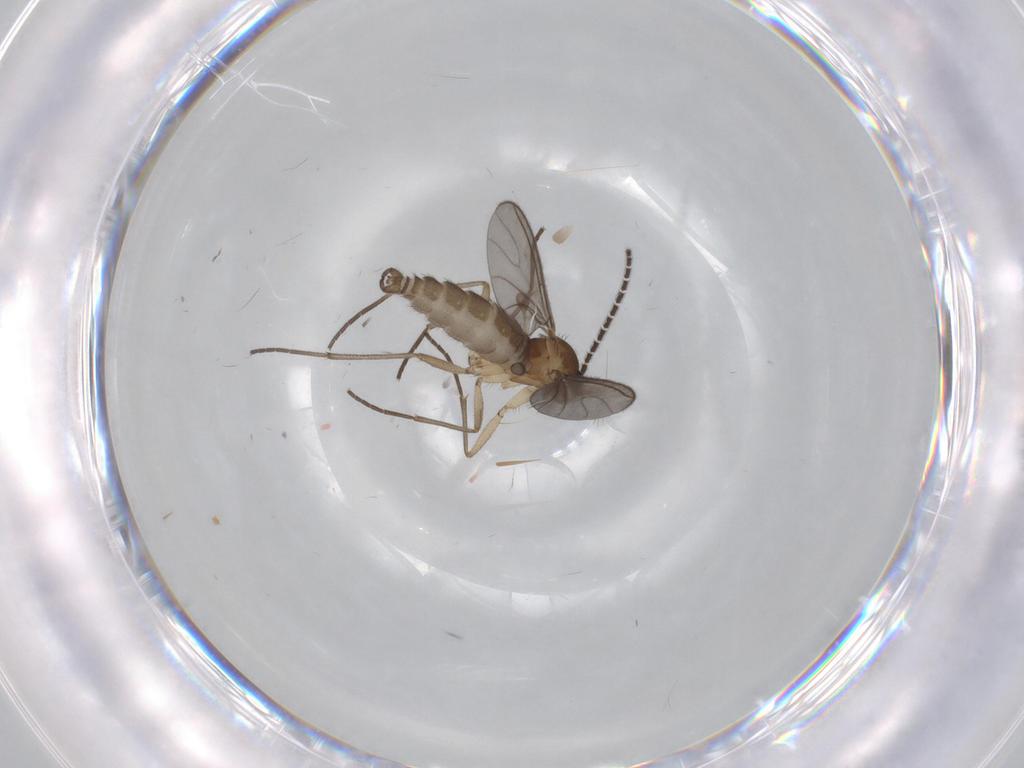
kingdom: Animalia
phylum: Arthropoda
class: Insecta
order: Diptera
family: Sciaridae
